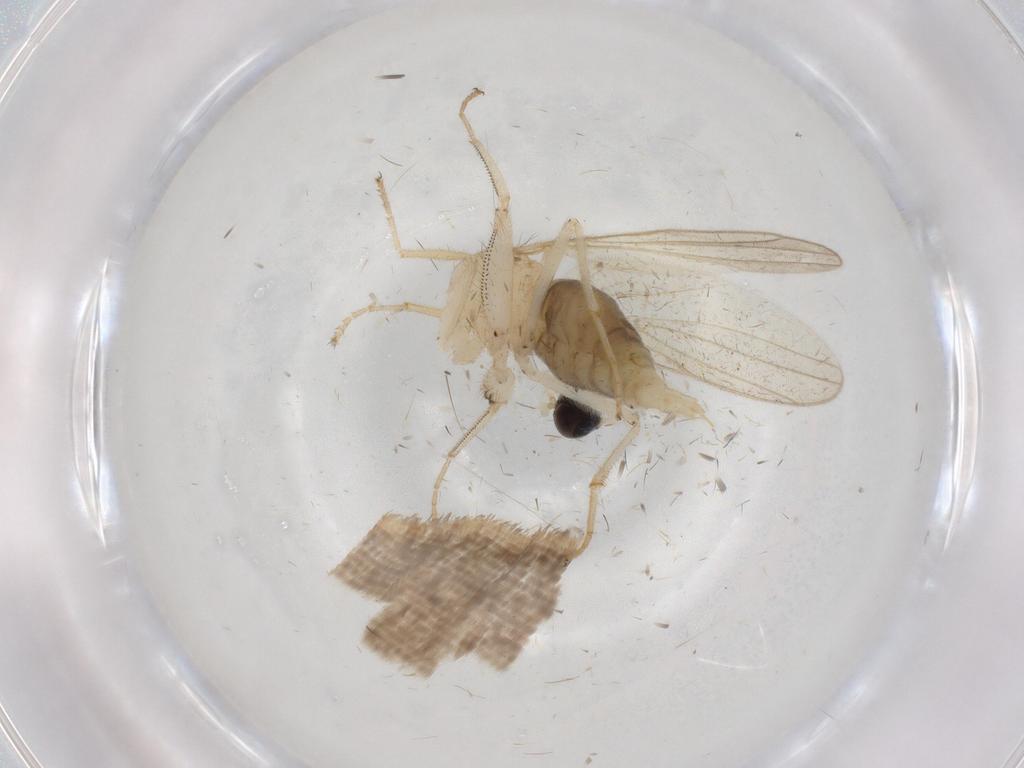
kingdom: Animalia
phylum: Arthropoda
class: Insecta
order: Diptera
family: Hybotidae
